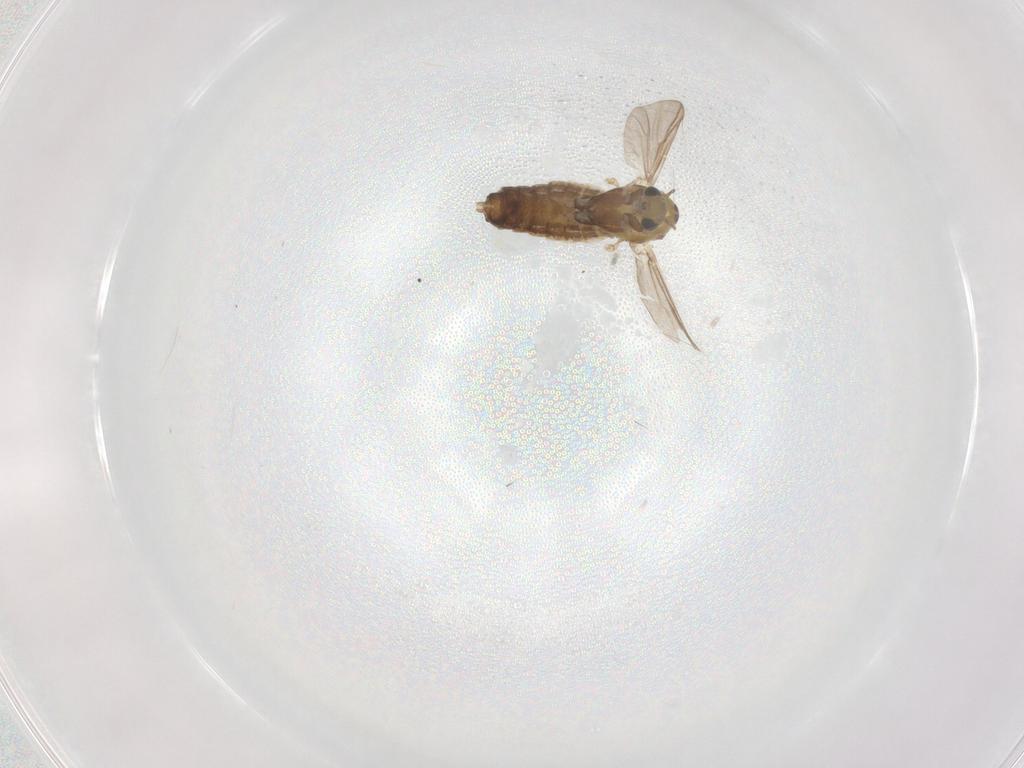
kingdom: Animalia
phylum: Arthropoda
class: Insecta
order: Diptera
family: Chironomidae
